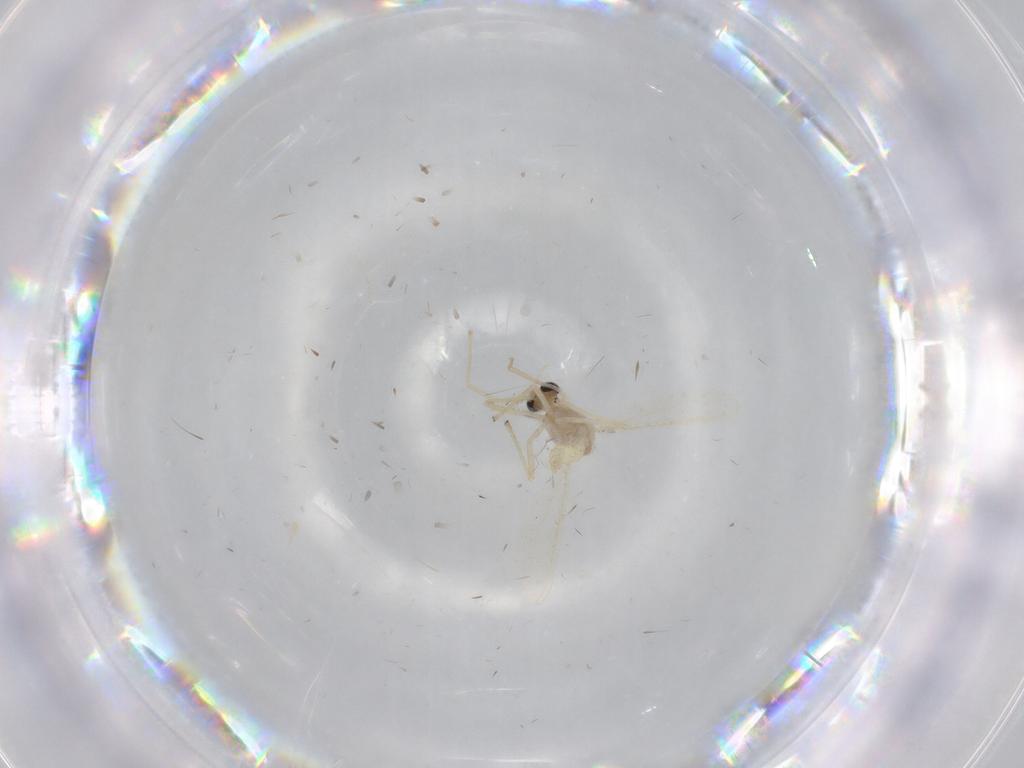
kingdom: Animalia
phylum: Arthropoda
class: Insecta
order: Diptera
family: Chironomidae
